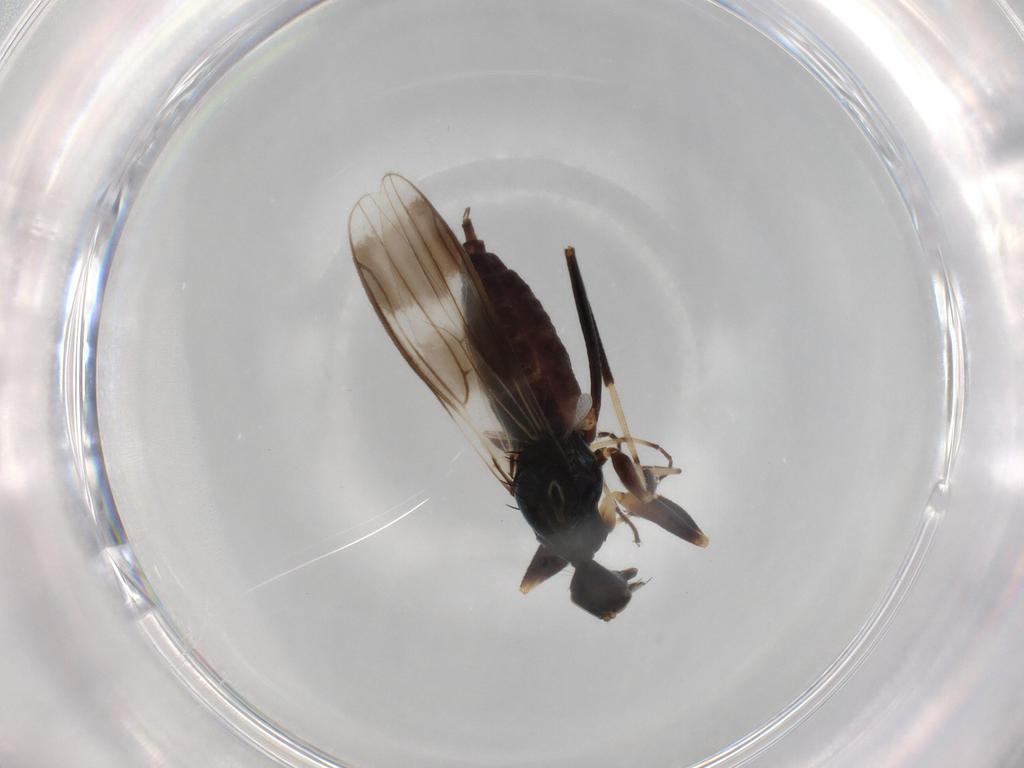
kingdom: Animalia
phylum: Arthropoda
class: Insecta
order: Diptera
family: Hybotidae
